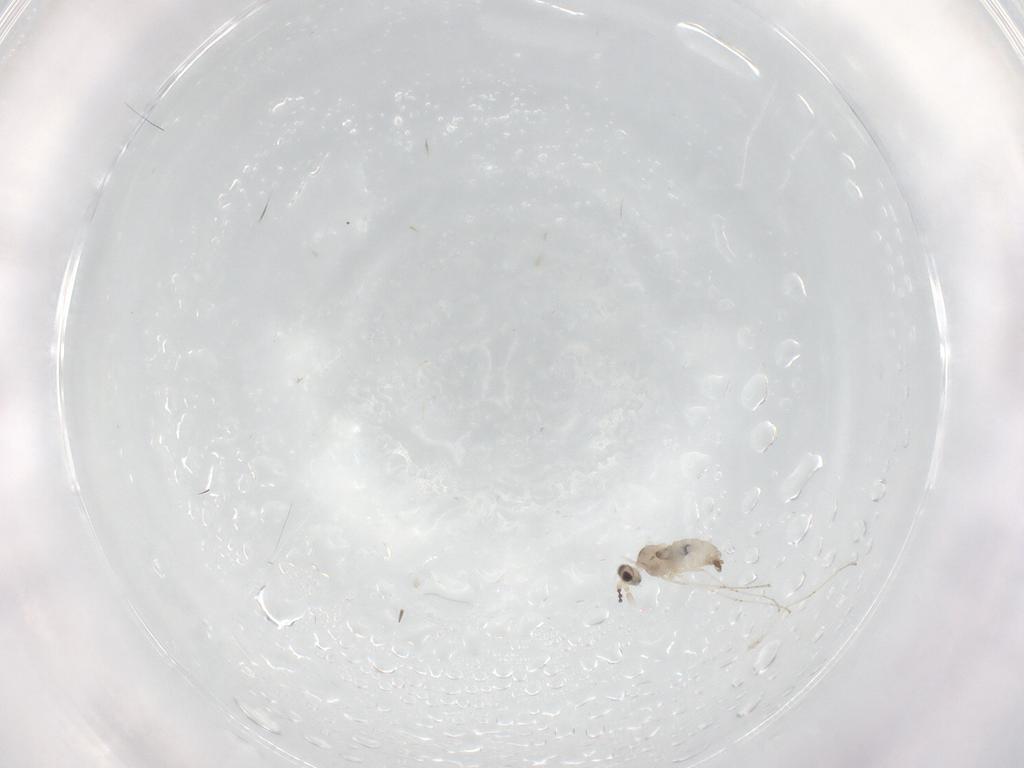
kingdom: Animalia
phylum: Arthropoda
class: Insecta
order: Diptera
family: Cecidomyiidae
